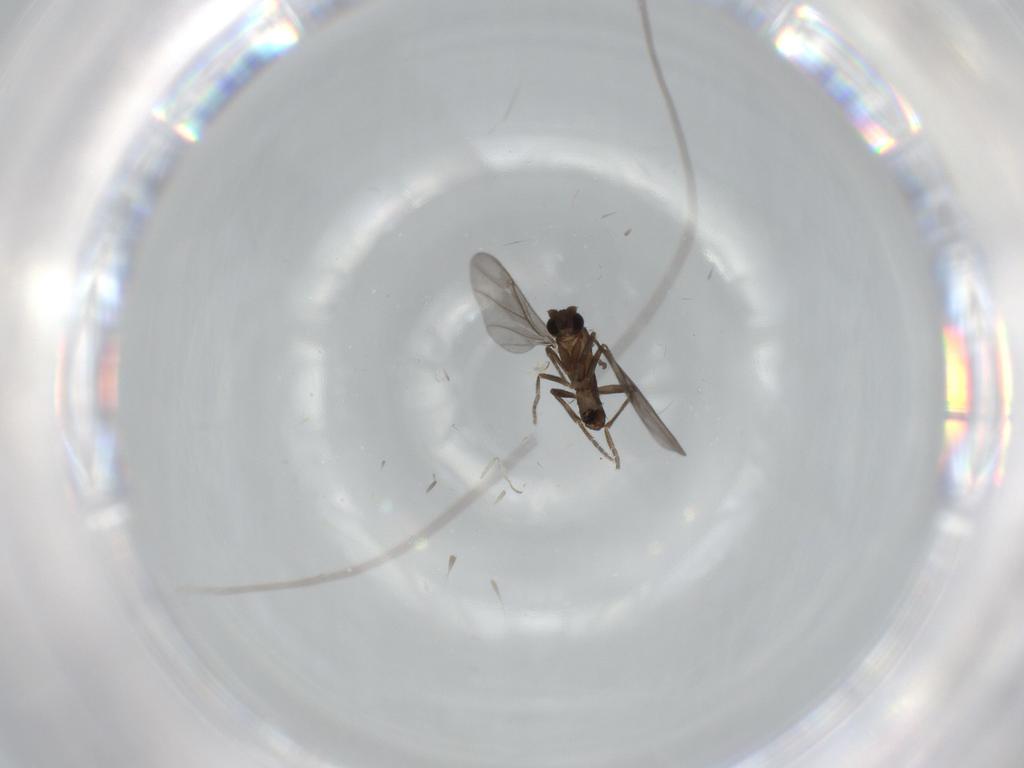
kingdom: Animalia
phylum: Arthropoda
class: Insecta
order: Diptera
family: Phoridae
